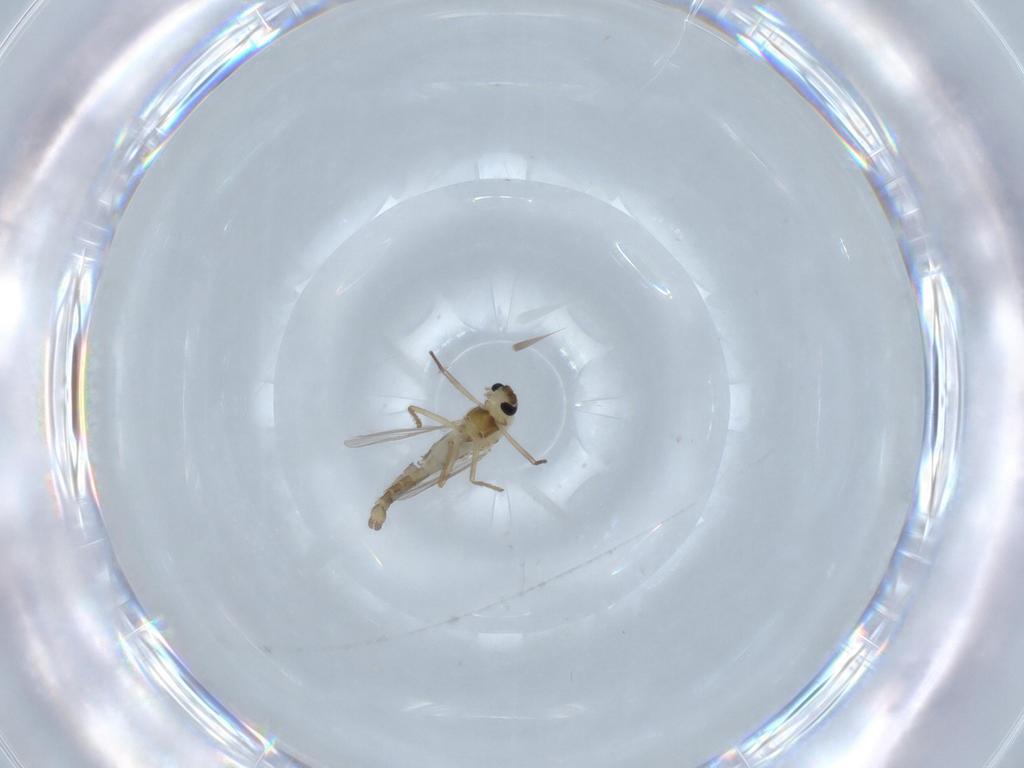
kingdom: Animalia
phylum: Arthropoda
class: Insecta
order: Diptera
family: Chironomidae
